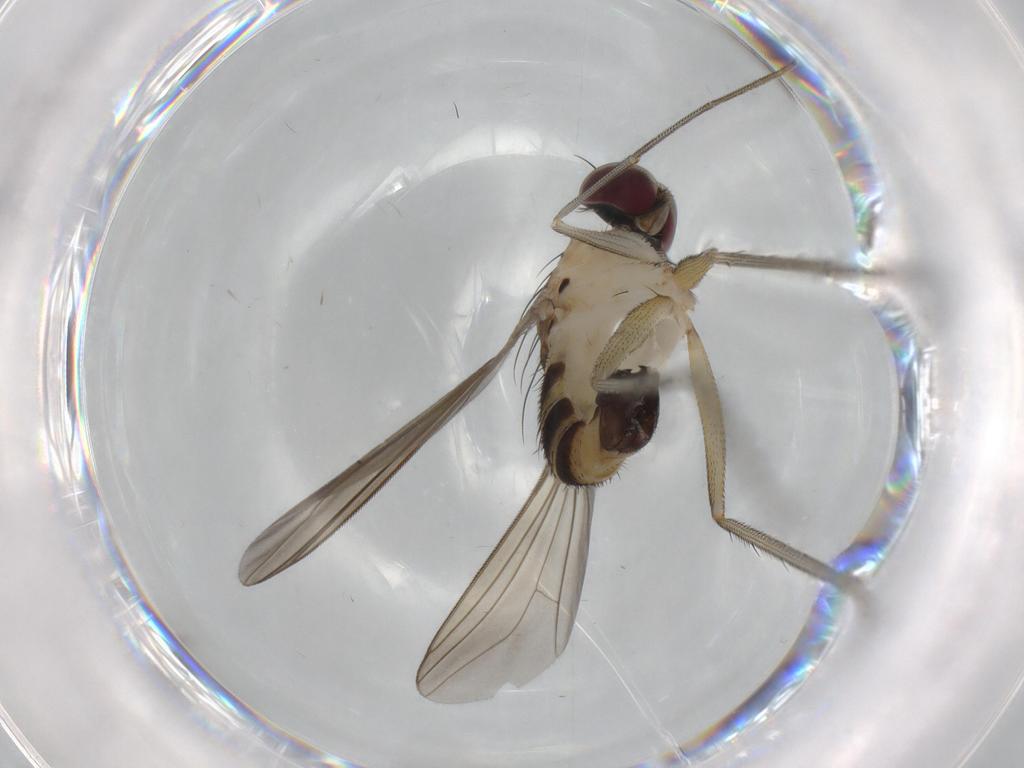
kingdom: Animalia
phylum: Arthropoda
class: Insecta
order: Diptera
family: Dolichopodidae
